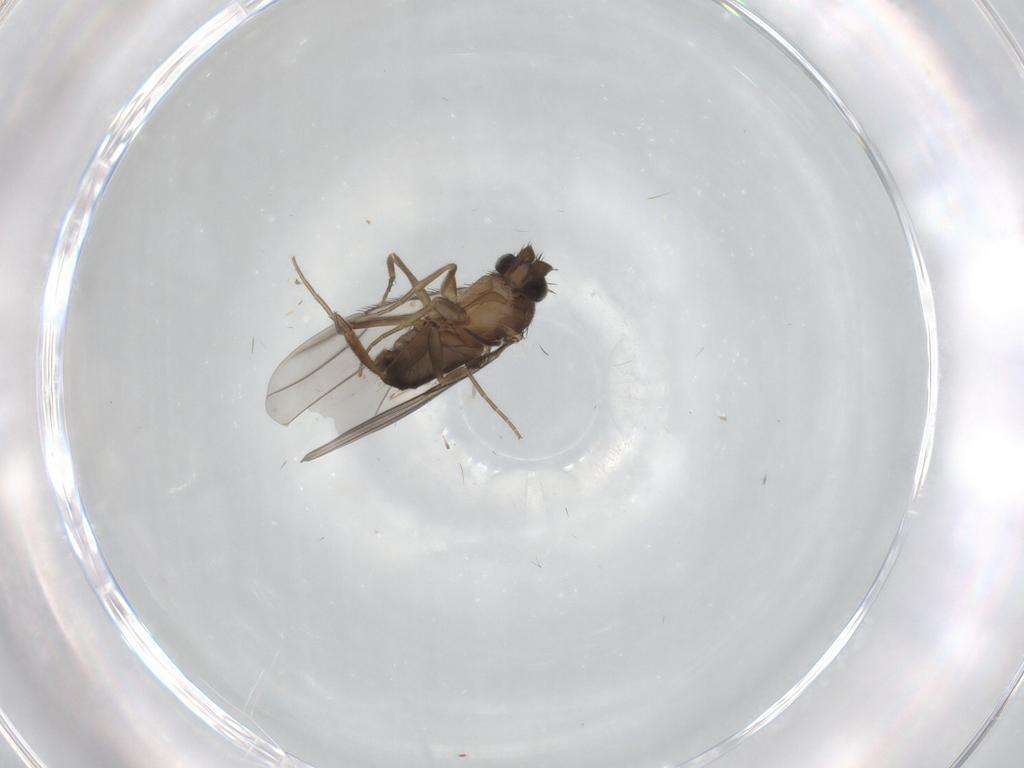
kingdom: Animalia
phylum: Arthropoda
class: Insecta
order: Diptera
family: Phoridae
